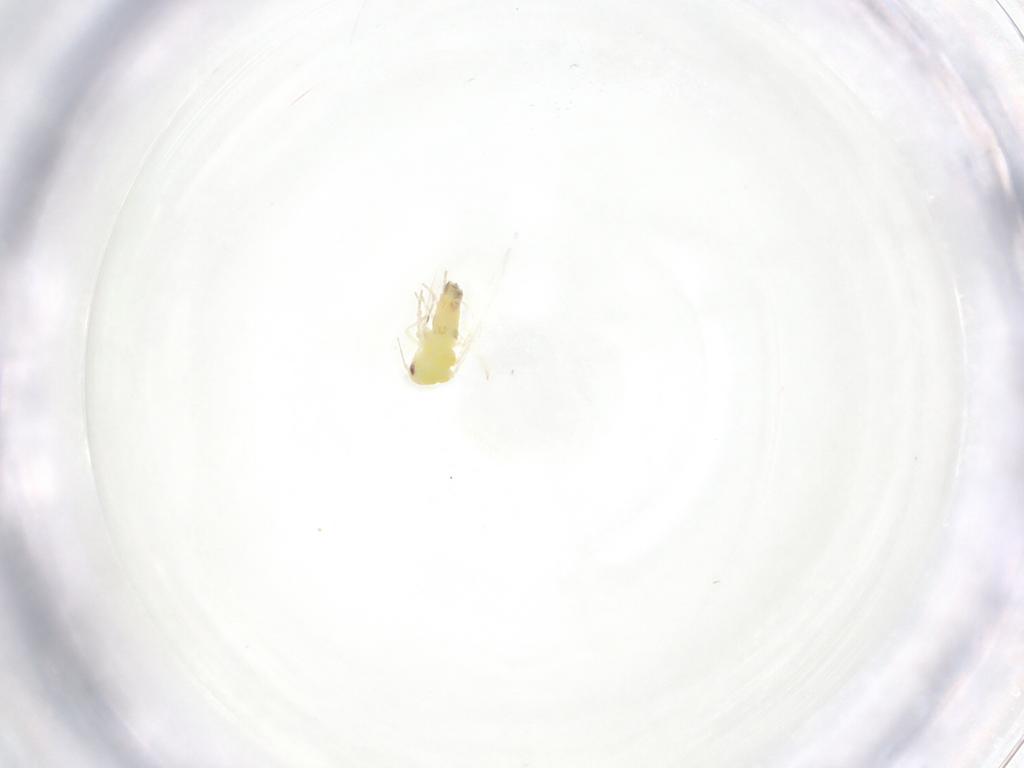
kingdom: Animalia
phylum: Arthropoda
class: Insecta
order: Hemiptera
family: Aleyrodidae
